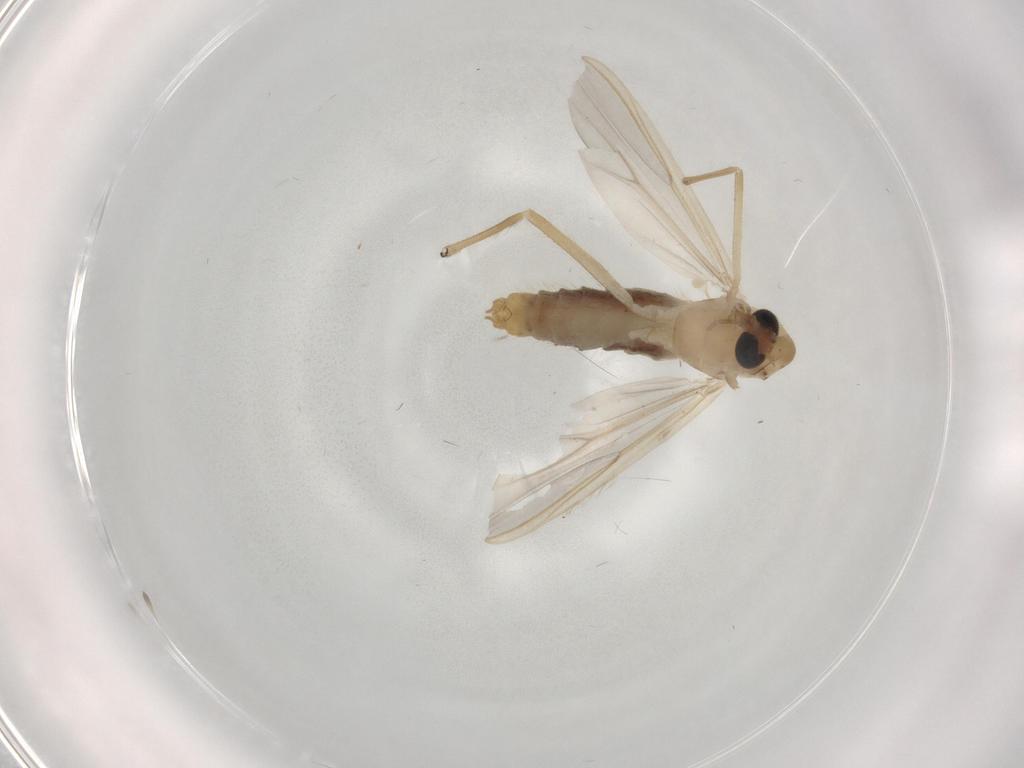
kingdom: Animalia
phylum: Arthropoda
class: Insecta
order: Diptera
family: Chironomidae
